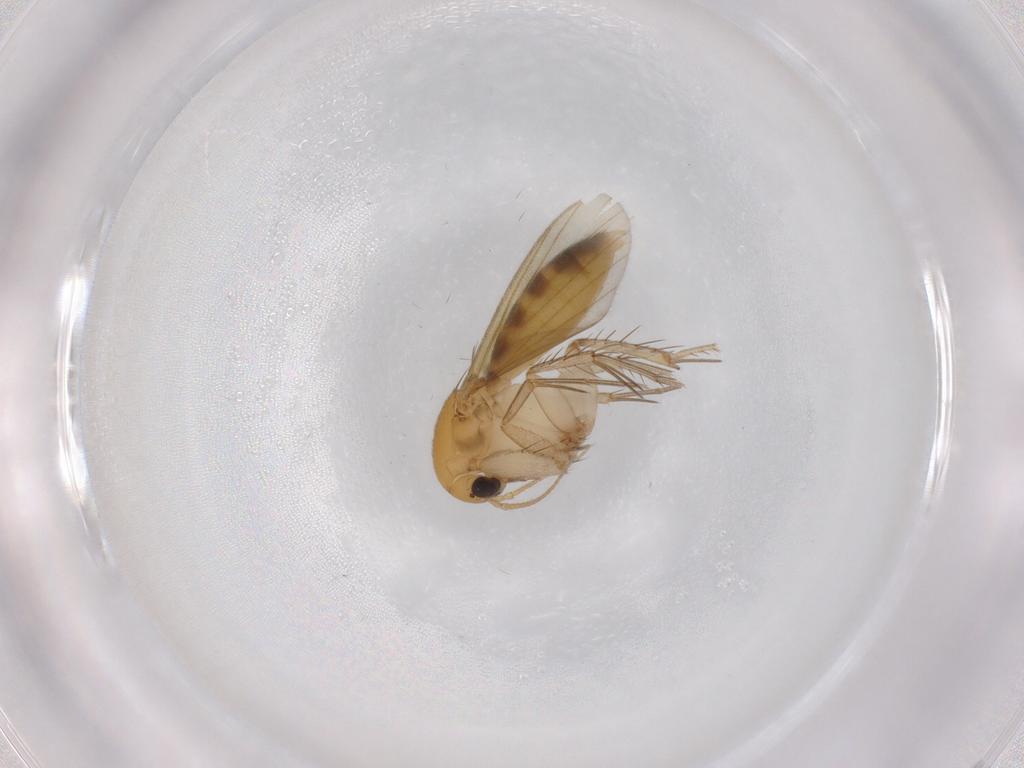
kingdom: Animalia
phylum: Arthropoda
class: Insecta
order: Diptera
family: Mycetophilidae
